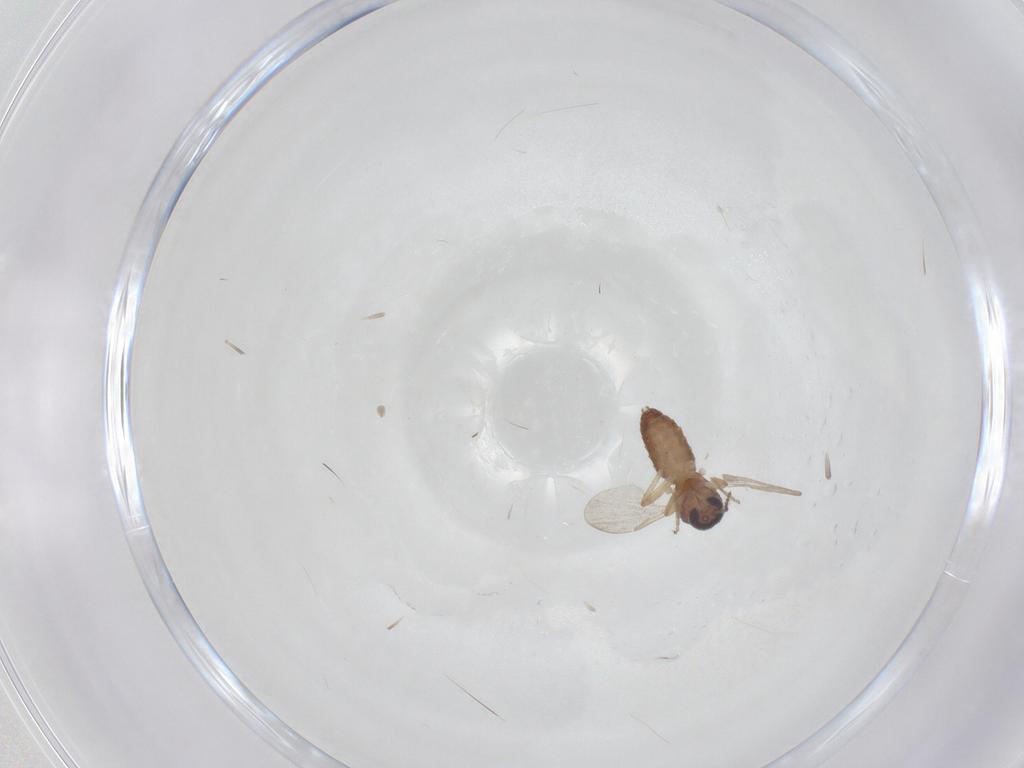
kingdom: Animalia
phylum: Arthropoda
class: Insecta
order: Diptera
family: Ceratopogonidae
